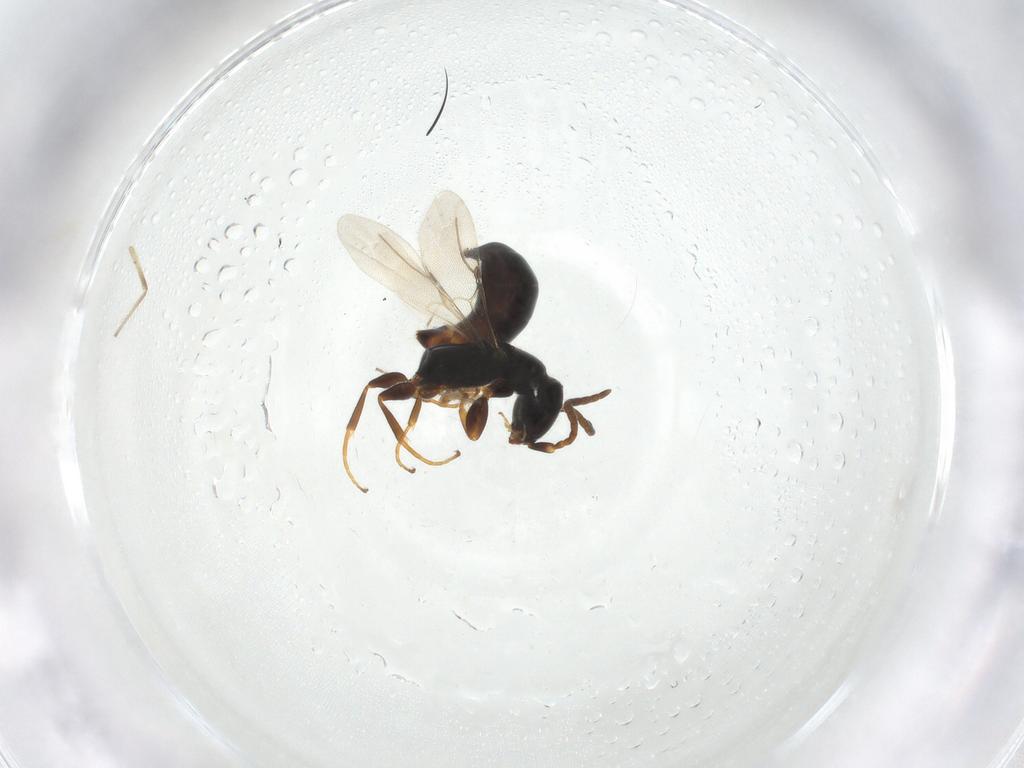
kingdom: Animalia
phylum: Arthropoda
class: Insecta
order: Hymenoptera
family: Bethylidae
